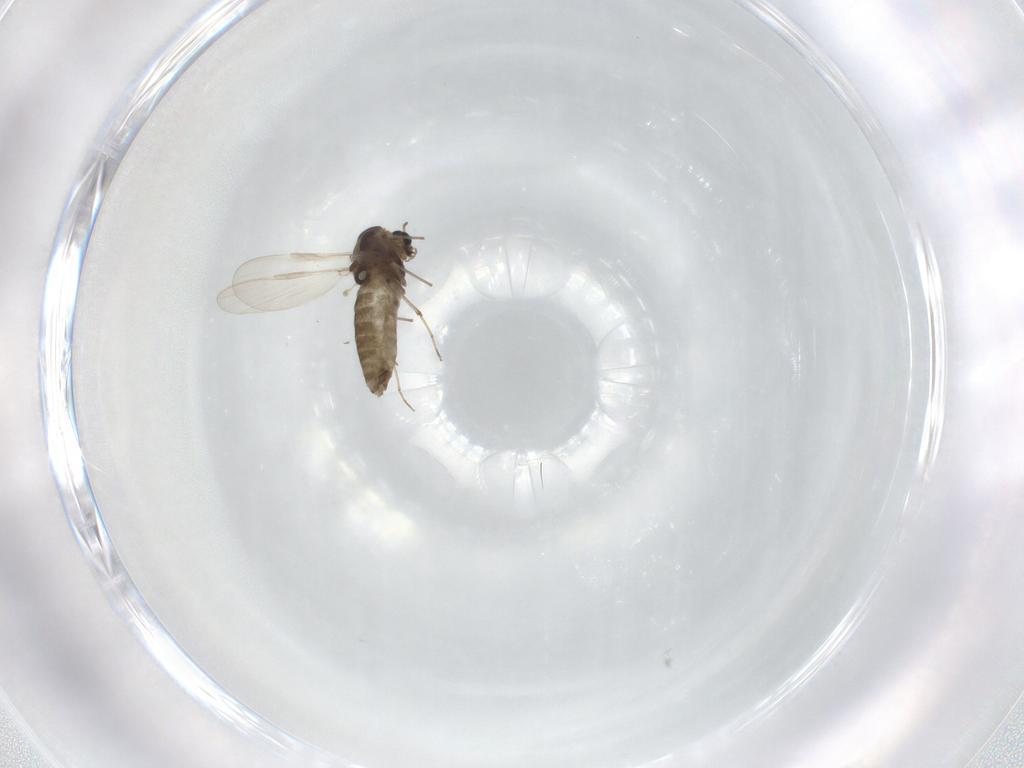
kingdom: Animalia
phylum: Arthropoda
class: Insecta
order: Diptera
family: Chironomidae
